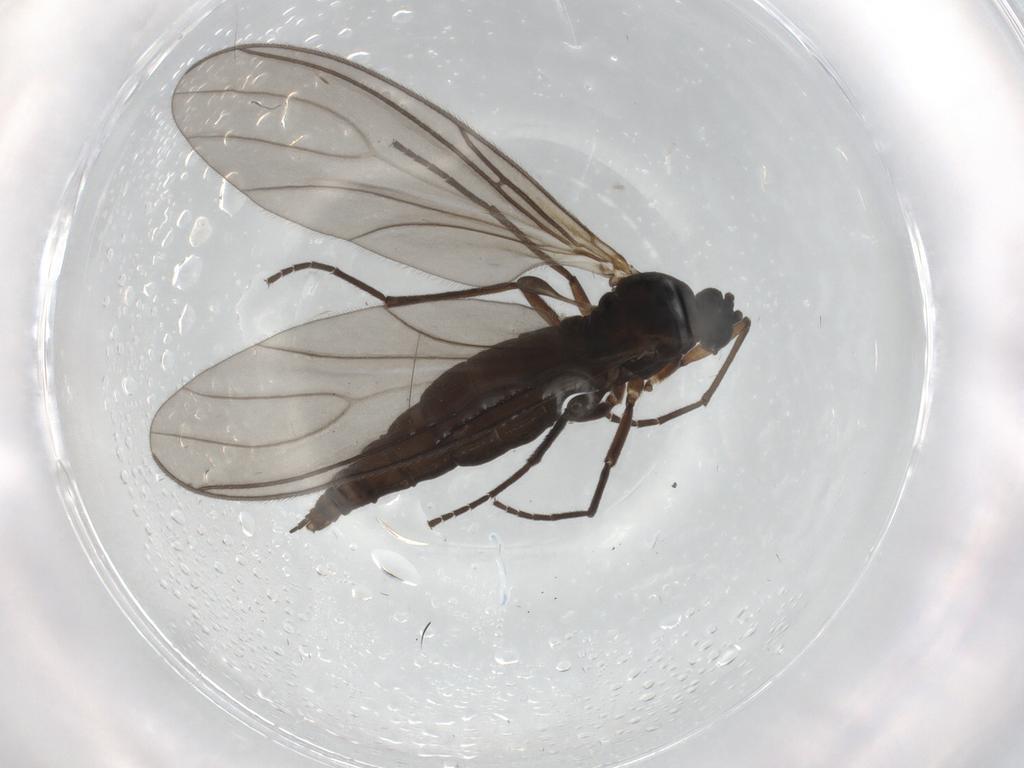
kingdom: Animalia
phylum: Arthropoda
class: Insecta
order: Diptera
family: Sciaridae
